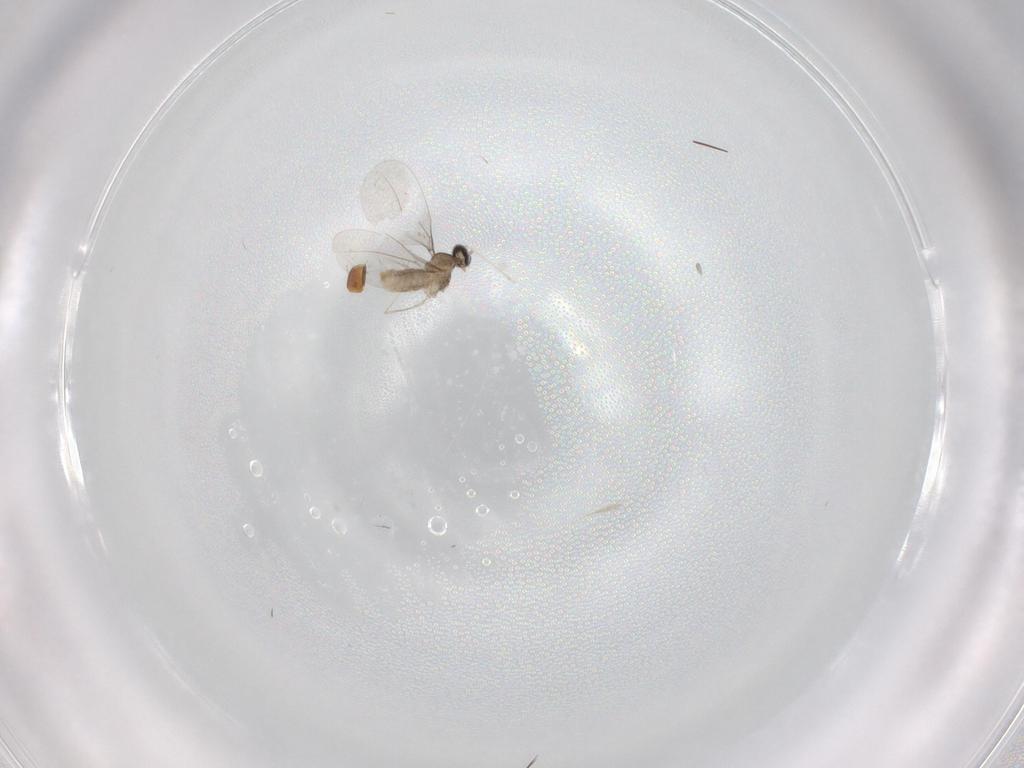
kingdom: Animalia
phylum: Arthropoda
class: Insecta
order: Diptera
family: Cecidomyiidae
